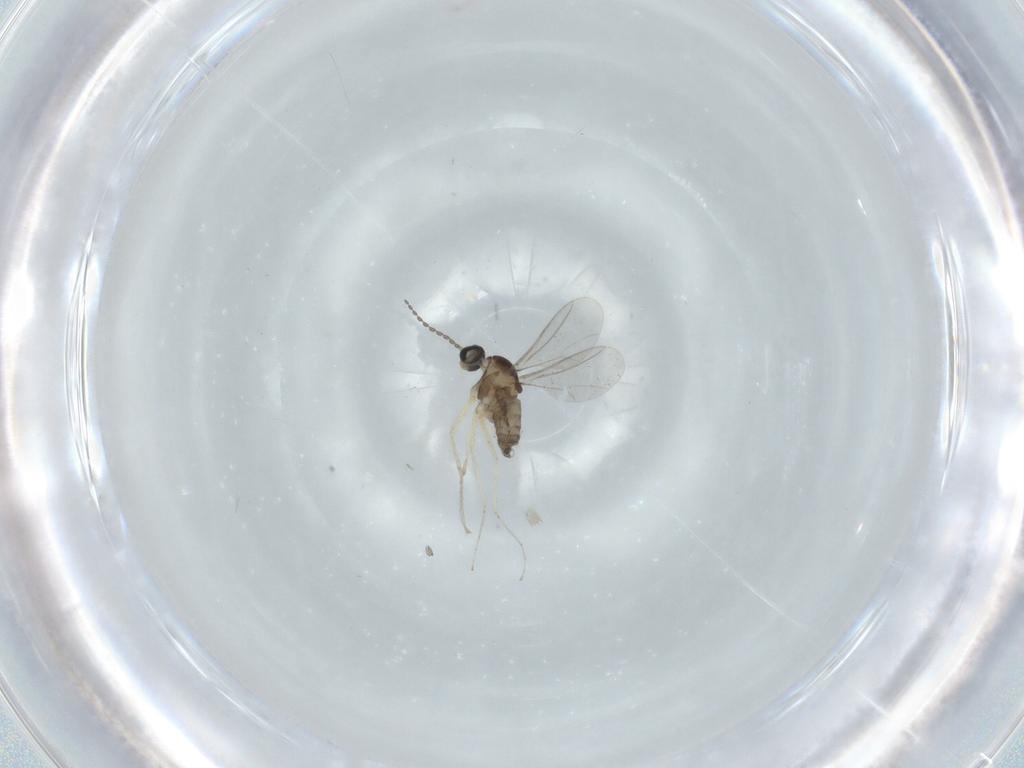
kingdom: Animalia
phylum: Arthropoda
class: Insecta
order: Diptera
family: Cecidomyiidae
